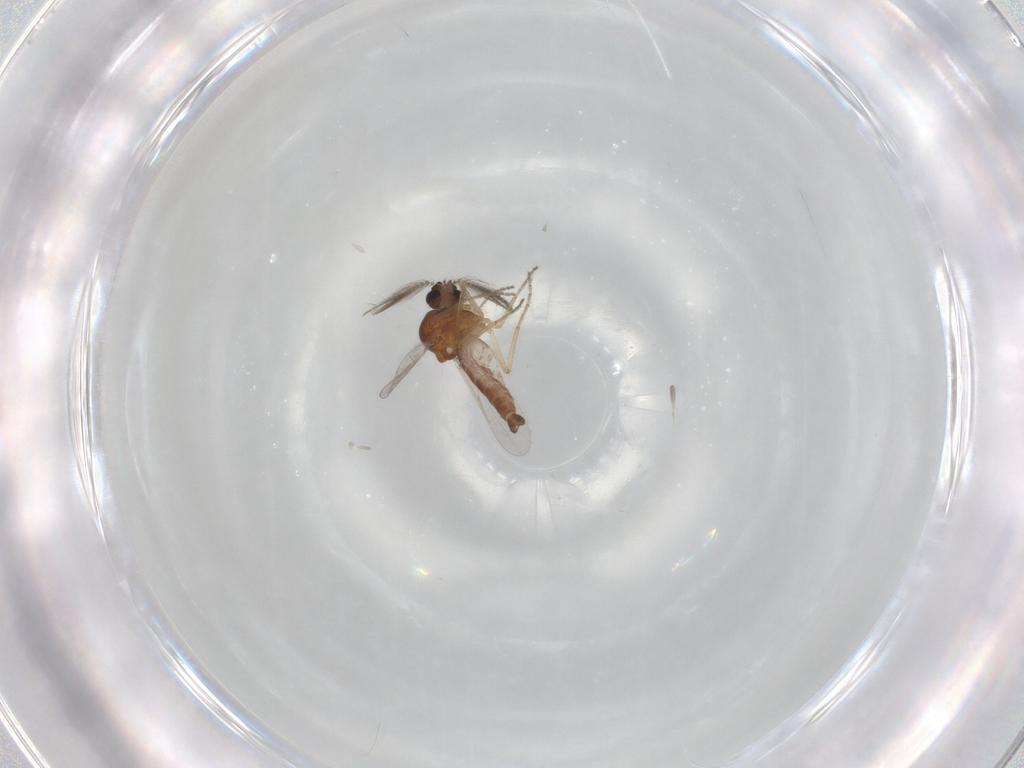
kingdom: Animalia
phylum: Arthropoda
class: Insecta
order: Diptera
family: Ceratopogonidae
